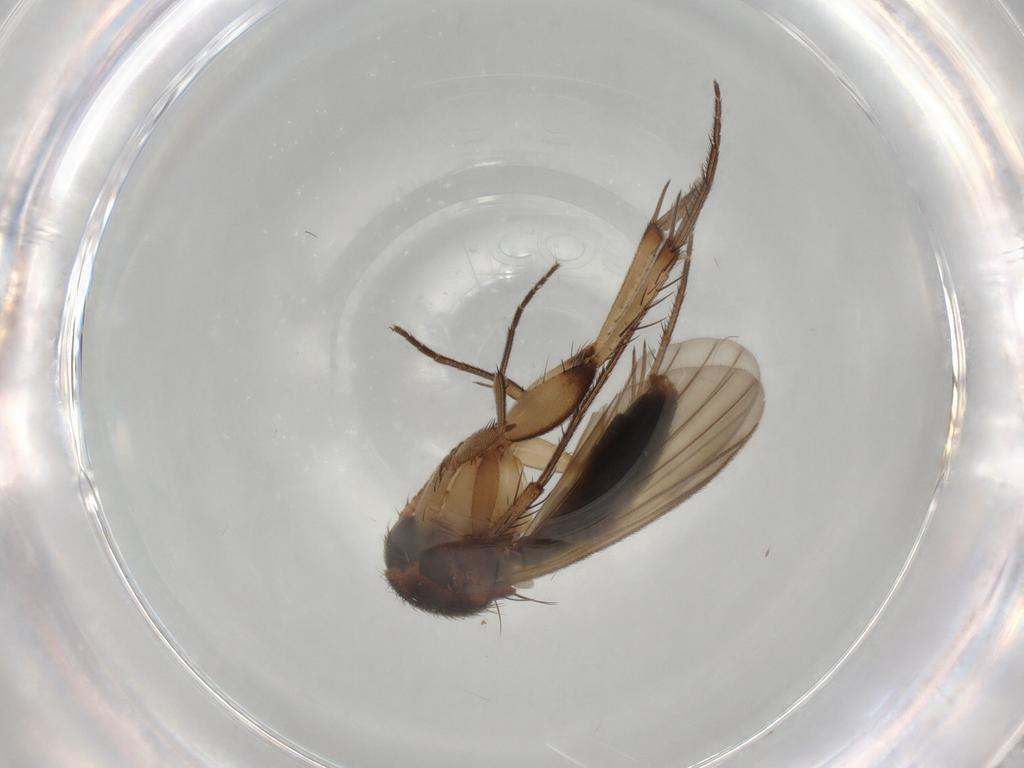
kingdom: Animalia
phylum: Arthropoda
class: Insecta
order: Diptera
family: Mycetophilidae
